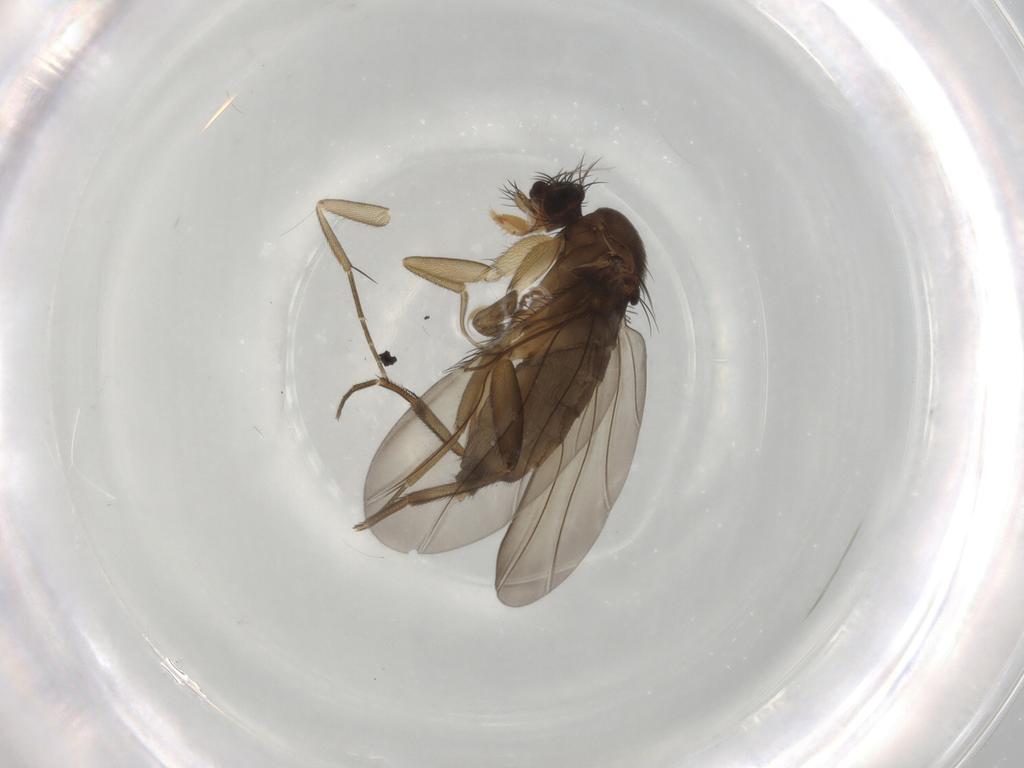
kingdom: Animalia
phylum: Arthropoda
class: Insecta
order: Diptera
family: Phoridae
